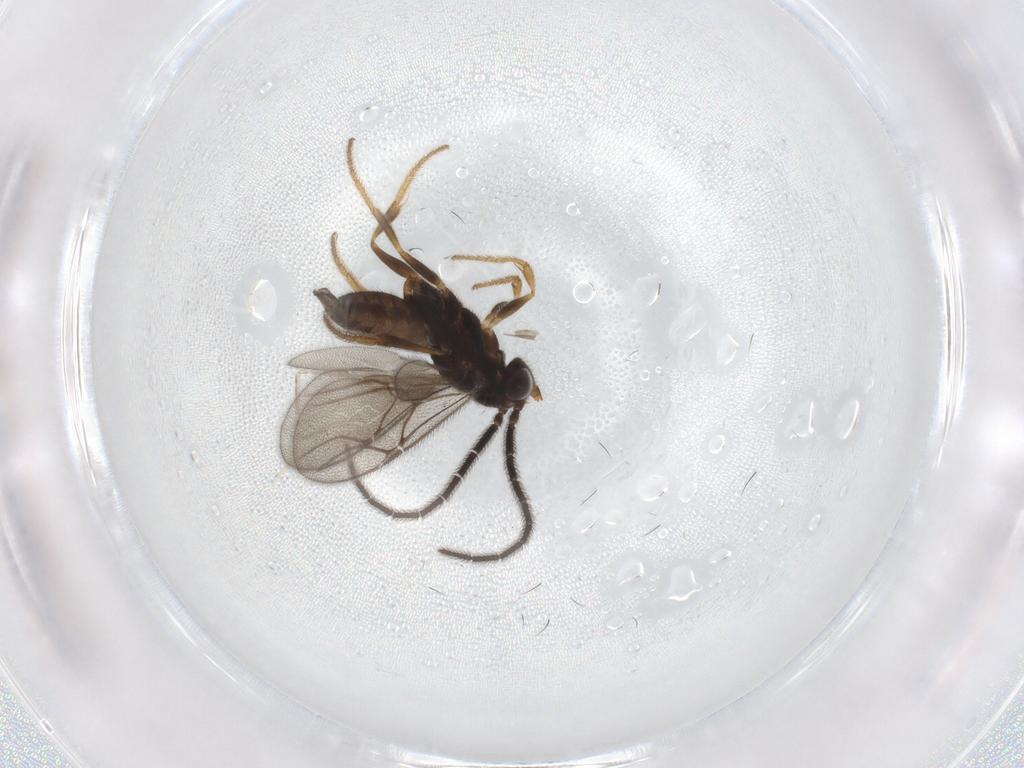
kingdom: Animalia
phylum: Arthropoda
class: Insecta
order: Hymenoptera
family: Dryinidae
